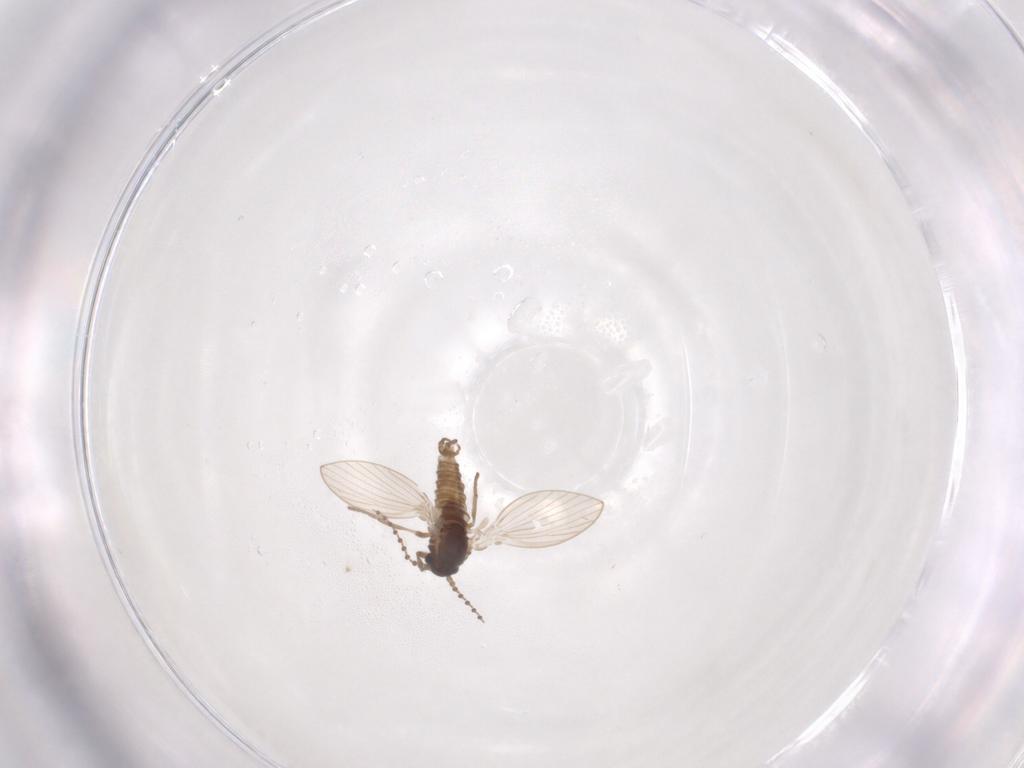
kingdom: Animalia
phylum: Arthropoda
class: Insecta
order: Diptera
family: Psychodidae
